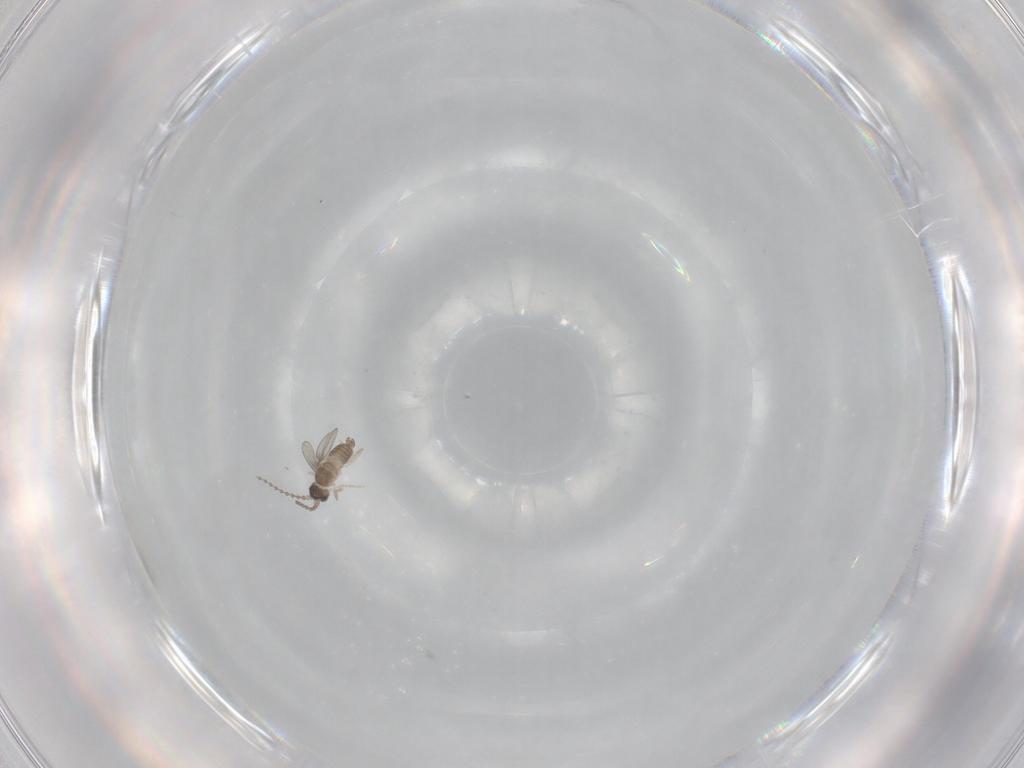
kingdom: Animalia
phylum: Arthropoda
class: Insecta
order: Diptera
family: Cecidomyiidae
